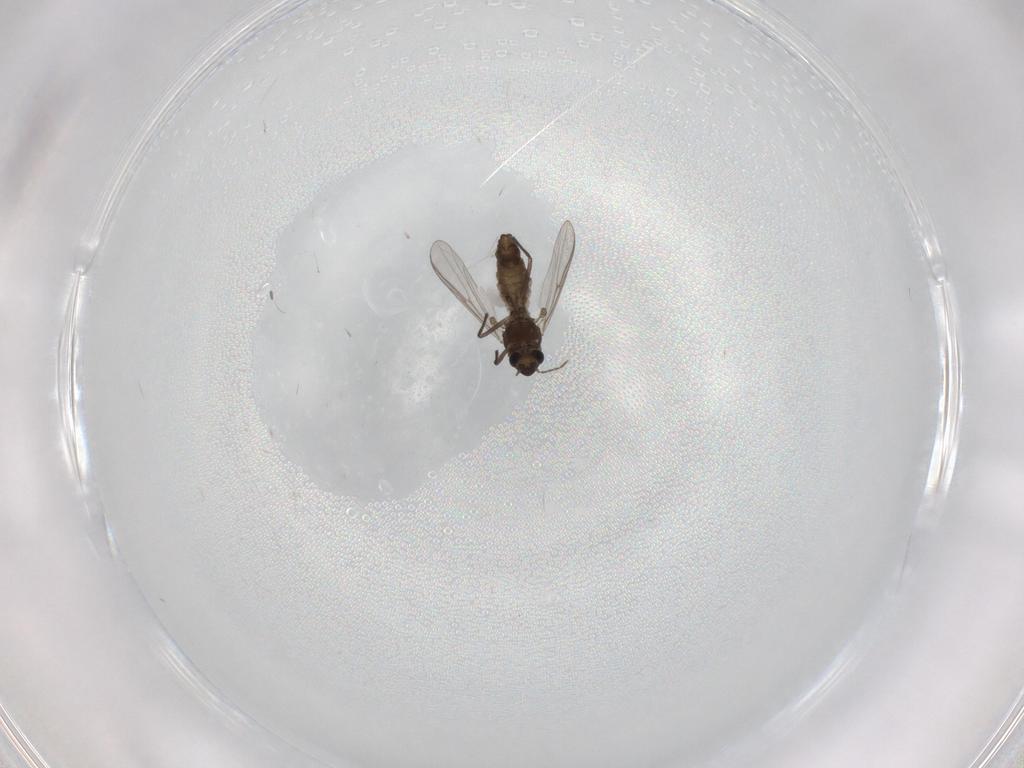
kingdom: Animalia
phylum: Arthropoda
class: Insecta
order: Diptera
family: Chironomidae
